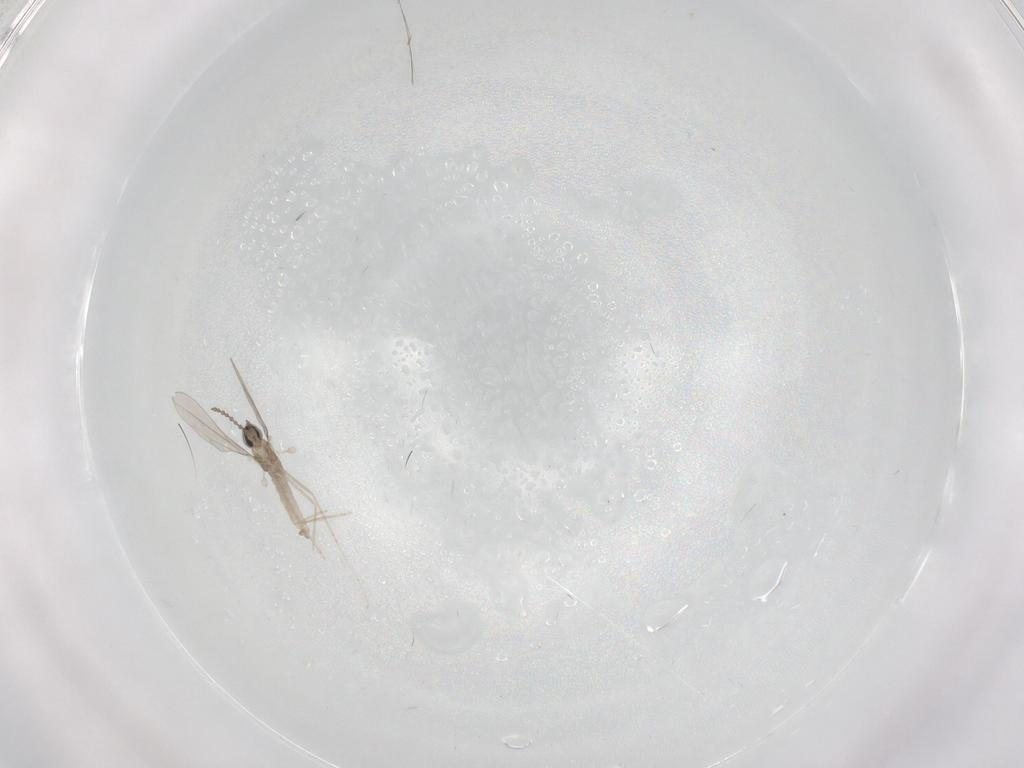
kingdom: Animalia
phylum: Arthropoda
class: Insecta
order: Diptera
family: Cecidomyiidae
